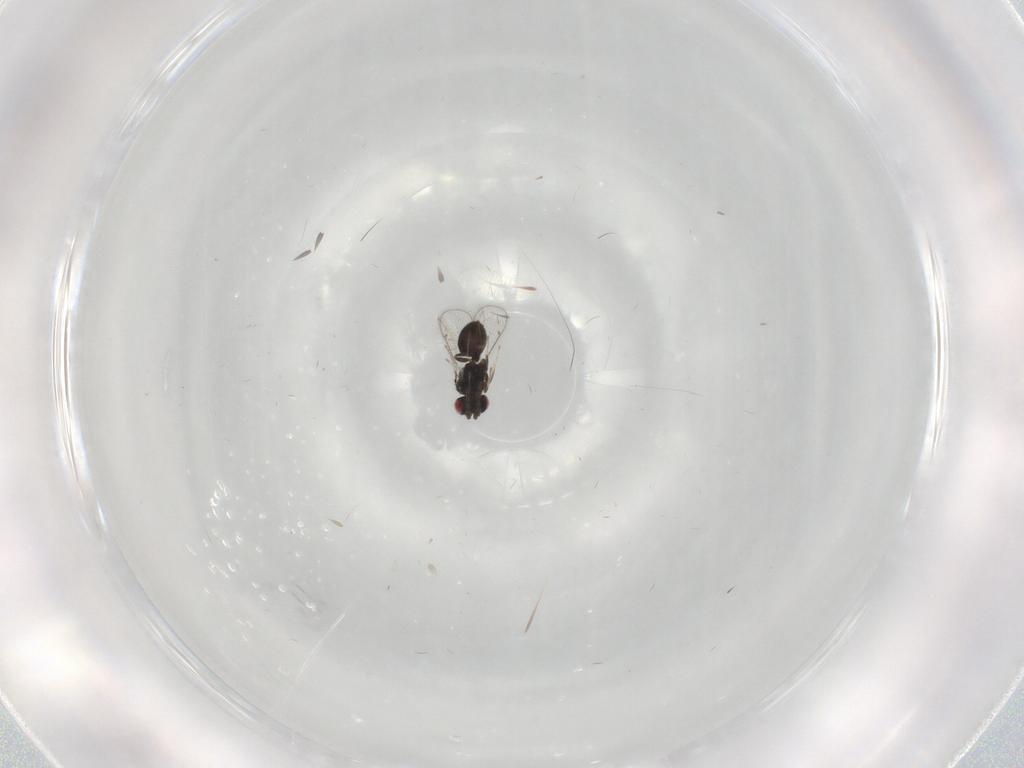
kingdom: Animalia
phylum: Arthropoda
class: Insecta
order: Hymenoptera
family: Eulophidae
